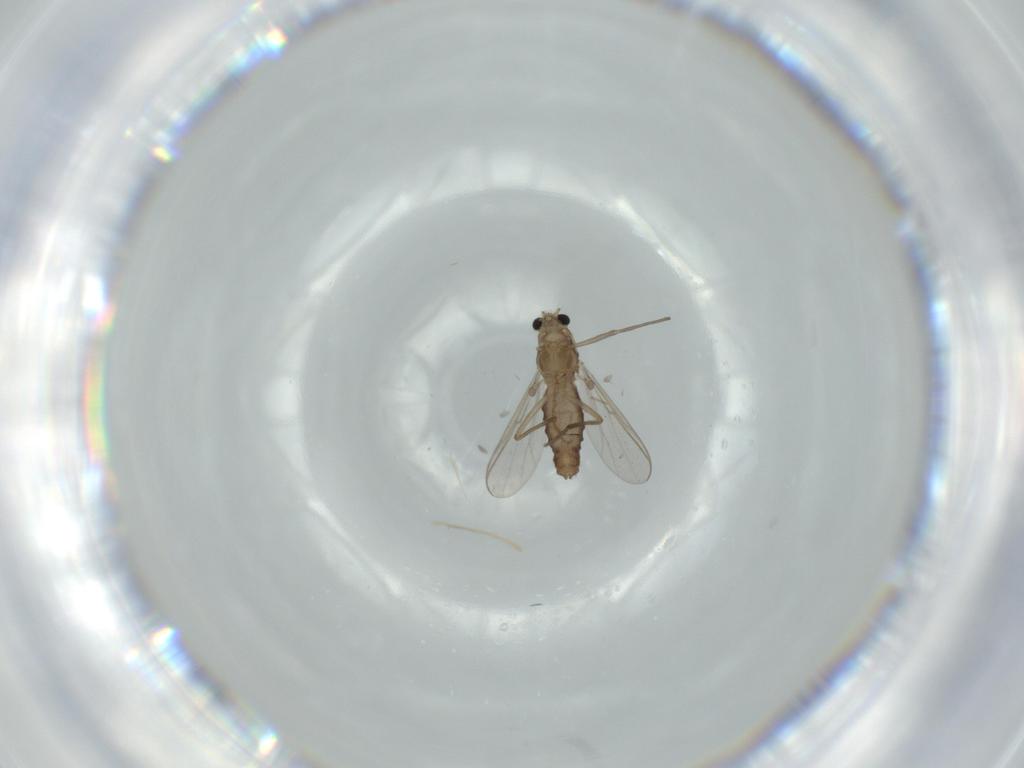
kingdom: Animalia
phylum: Arthropoda
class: Insecta
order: Diptera
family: Chironomidae
